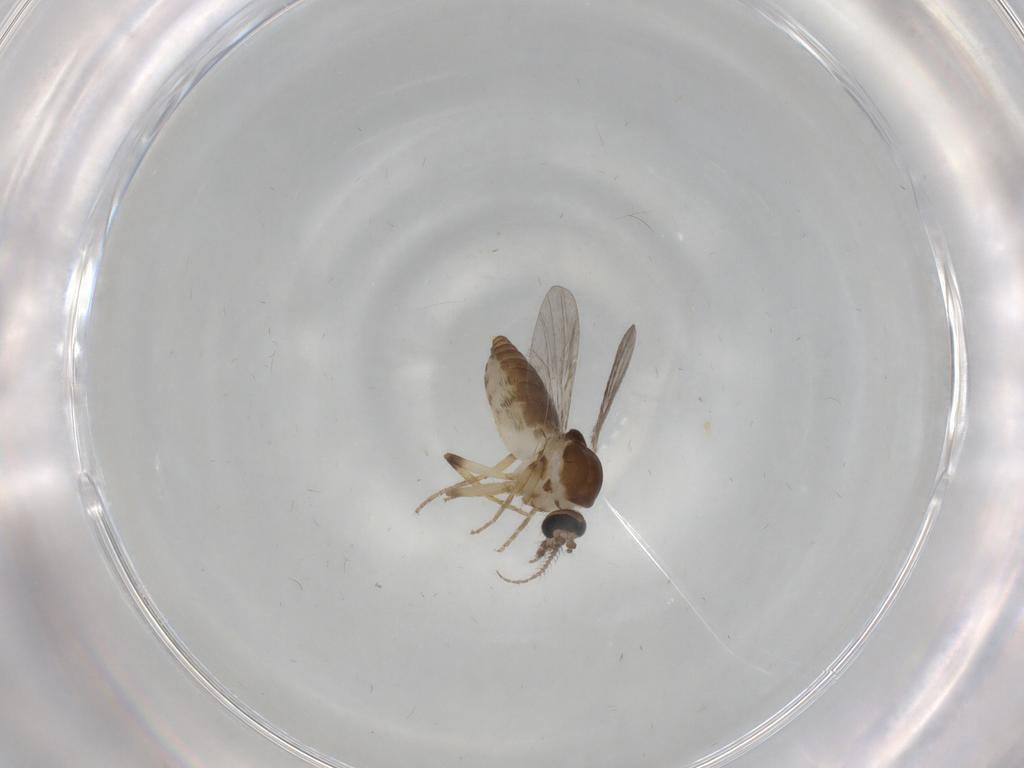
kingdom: Animalia
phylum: Arthropoda
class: Insecta
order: Diptera
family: Ceratopogonidae
